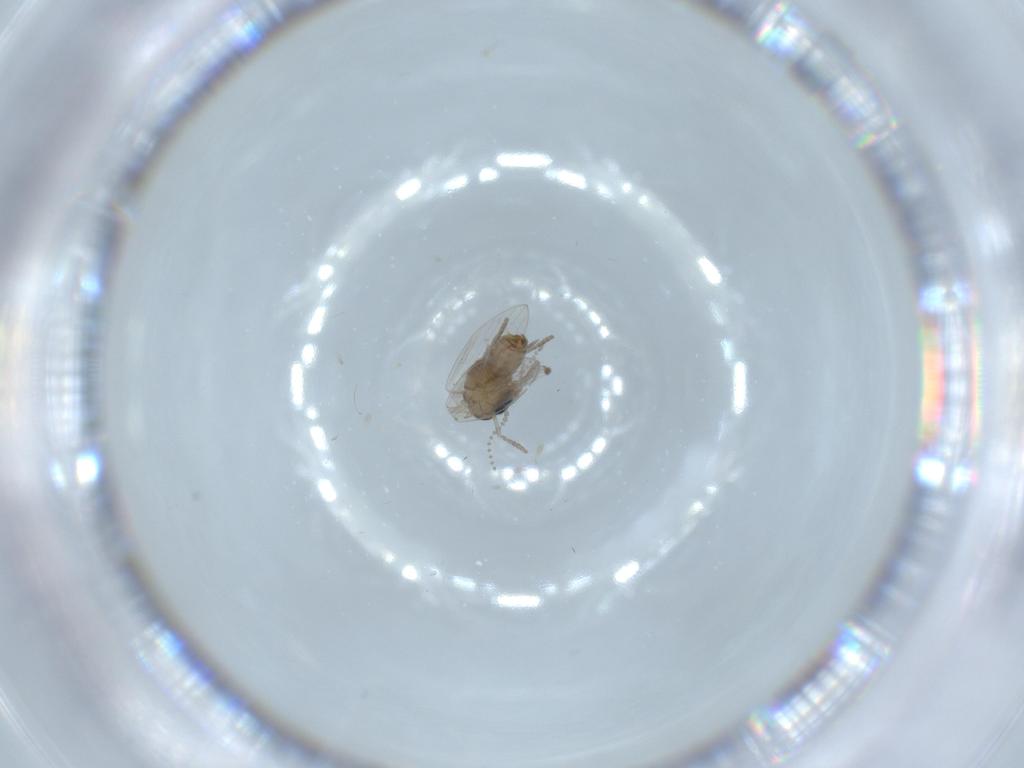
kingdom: Animalia
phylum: Arthropoda
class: Insecta
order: Diptera
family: Psychodidae
